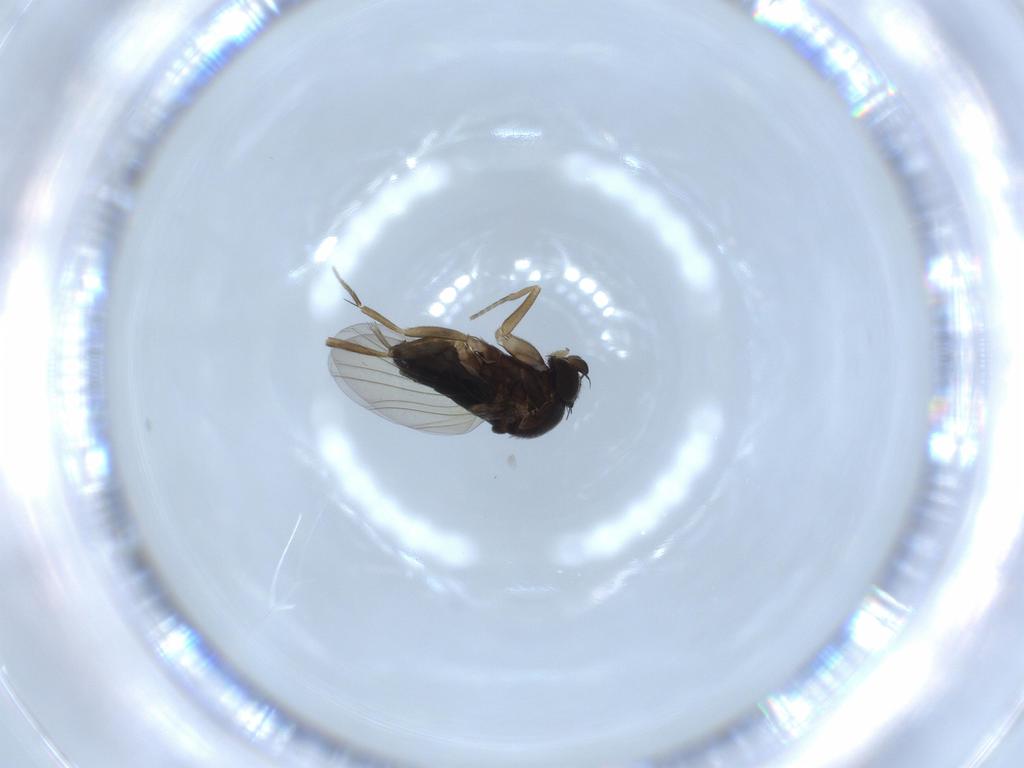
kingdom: Animalia
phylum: Arthropoda
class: Insecta
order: Diptera
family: Phoridae
